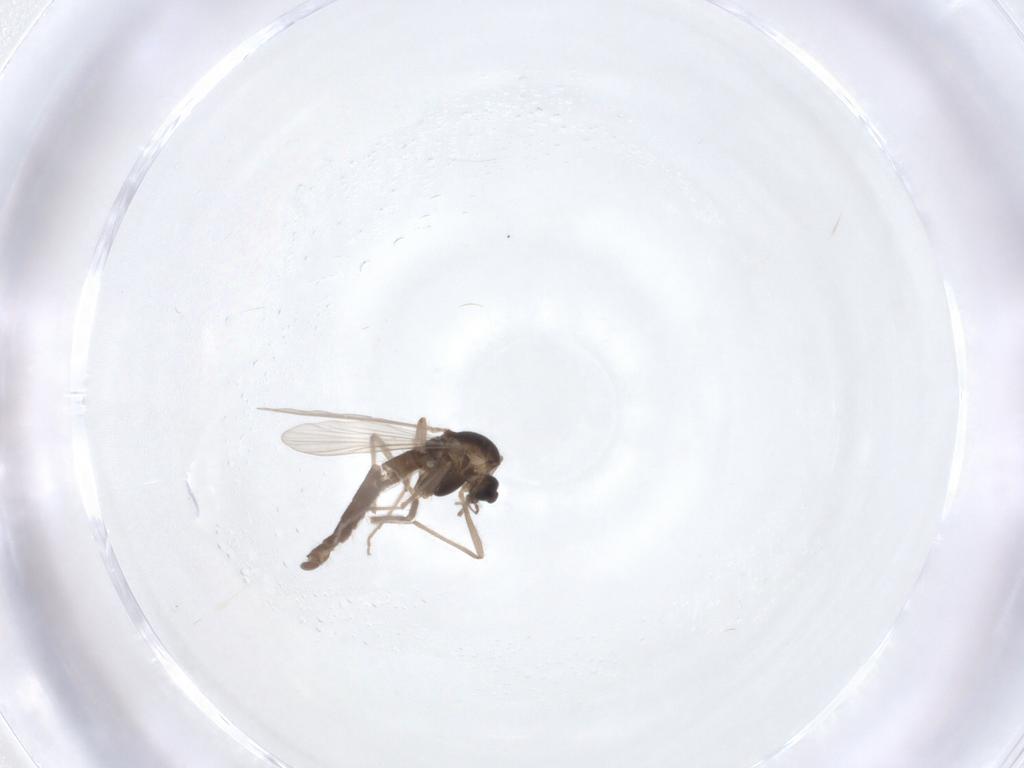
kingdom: Animalia
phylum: Arthropoda
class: Insecta
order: Diptera
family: Chironomidae
